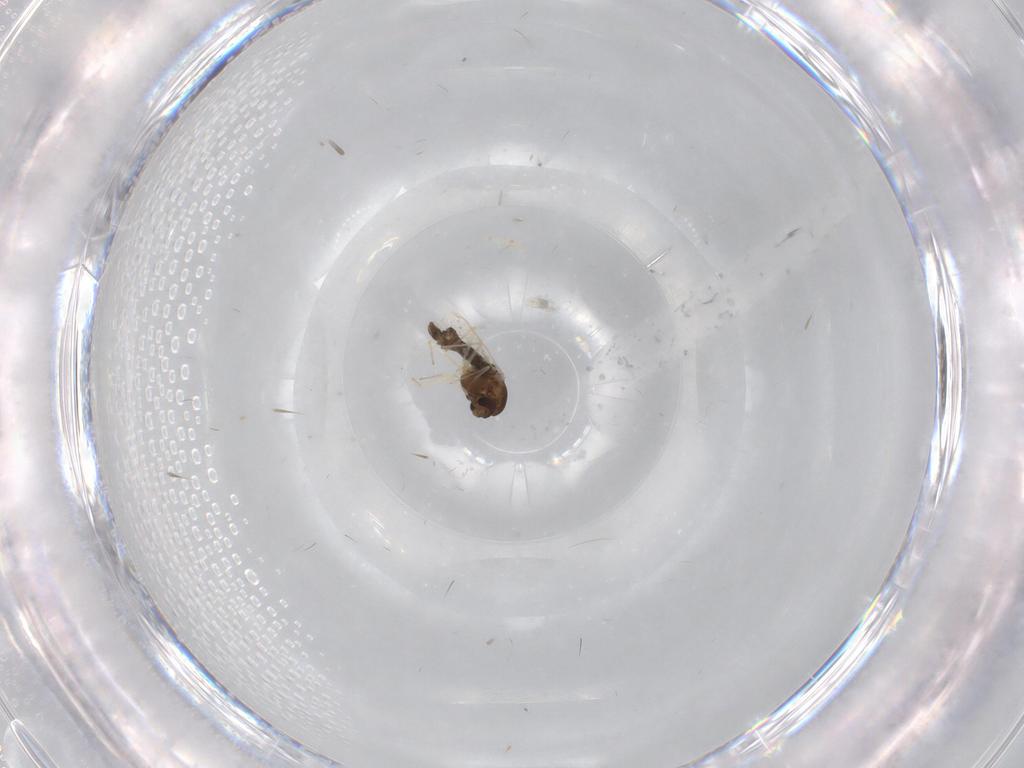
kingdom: Animalia
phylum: Arthropoda
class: Insecta
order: Diptera
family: Chironomidae
